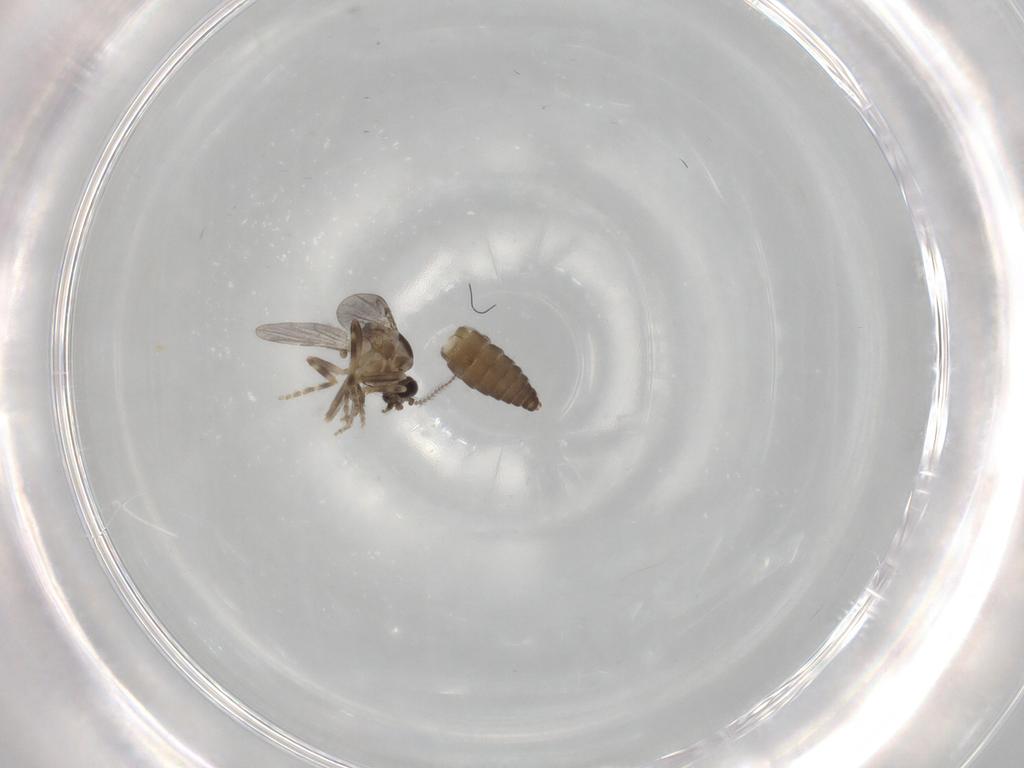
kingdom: Animalia
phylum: Arthropoda
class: Insecta
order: Diptera
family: Ceratopogonidae
